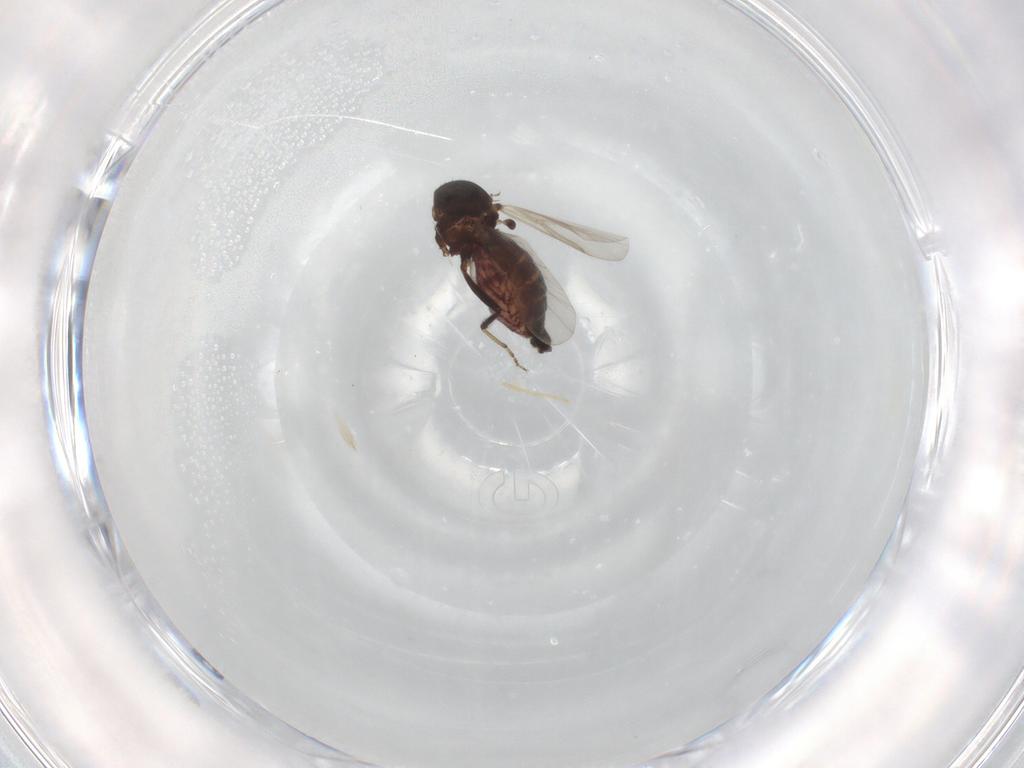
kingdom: Animalia
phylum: Arthropoda
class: Insecta
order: Diptera
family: Ceratopogonidae
